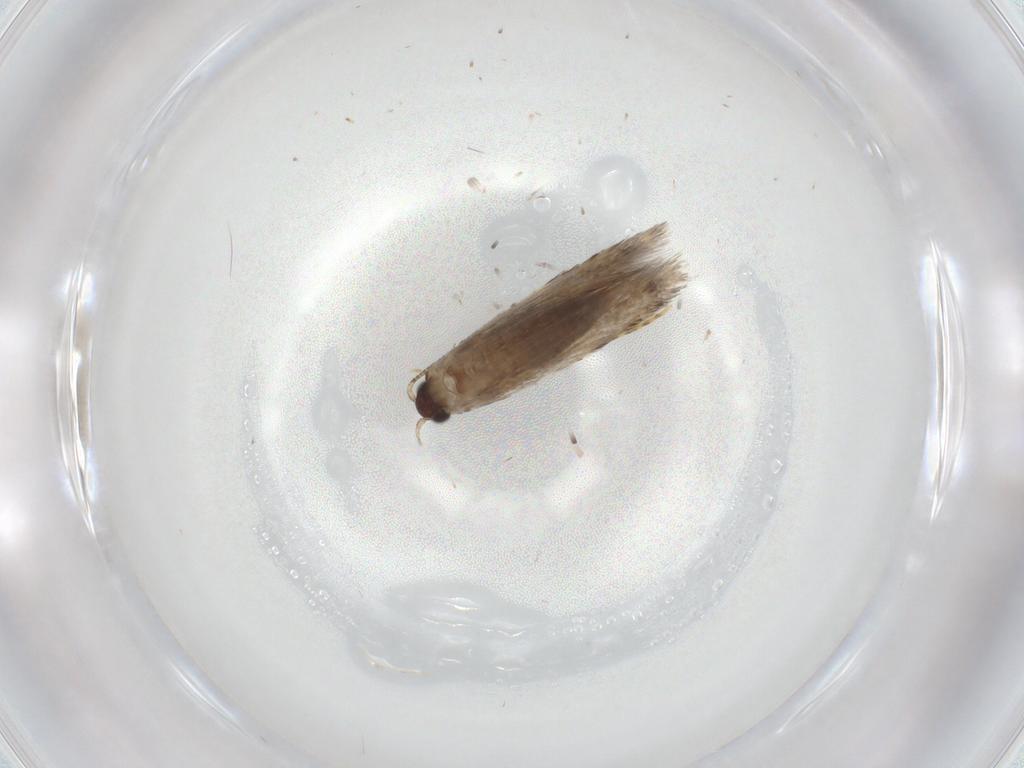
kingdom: Animalia
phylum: Arthropoda
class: Insecta
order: Lepidoptera
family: Tineidae
